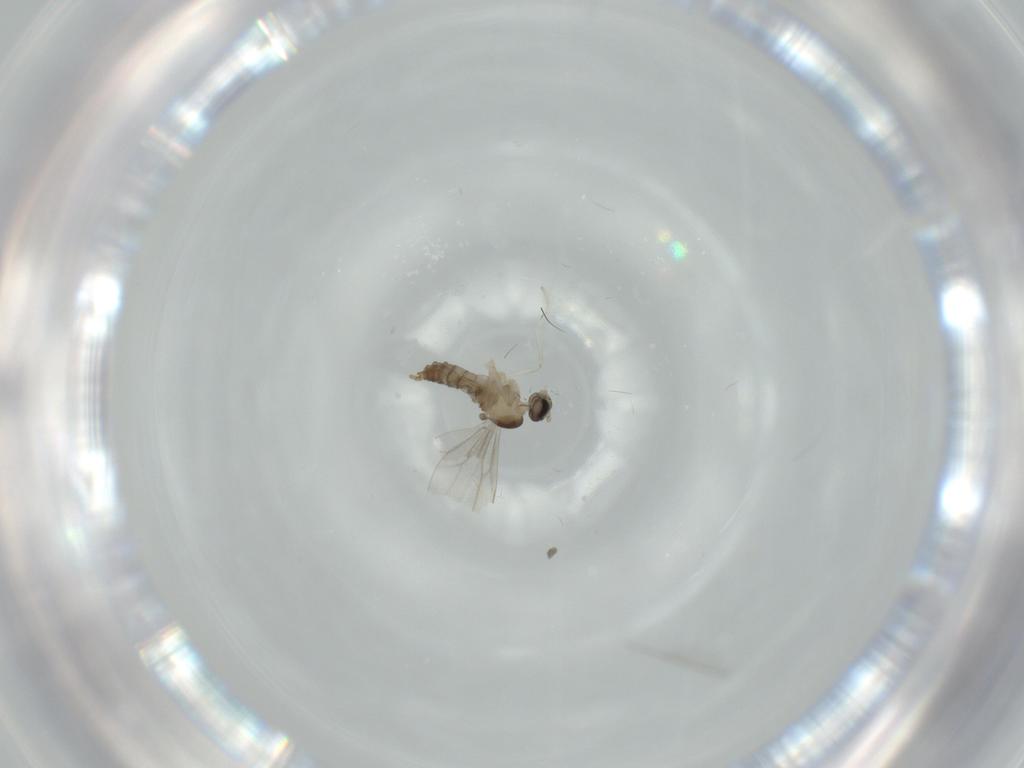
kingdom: Animalia
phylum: Arthropoda
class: Insecta
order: Diptera
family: Cecidomyiidae
